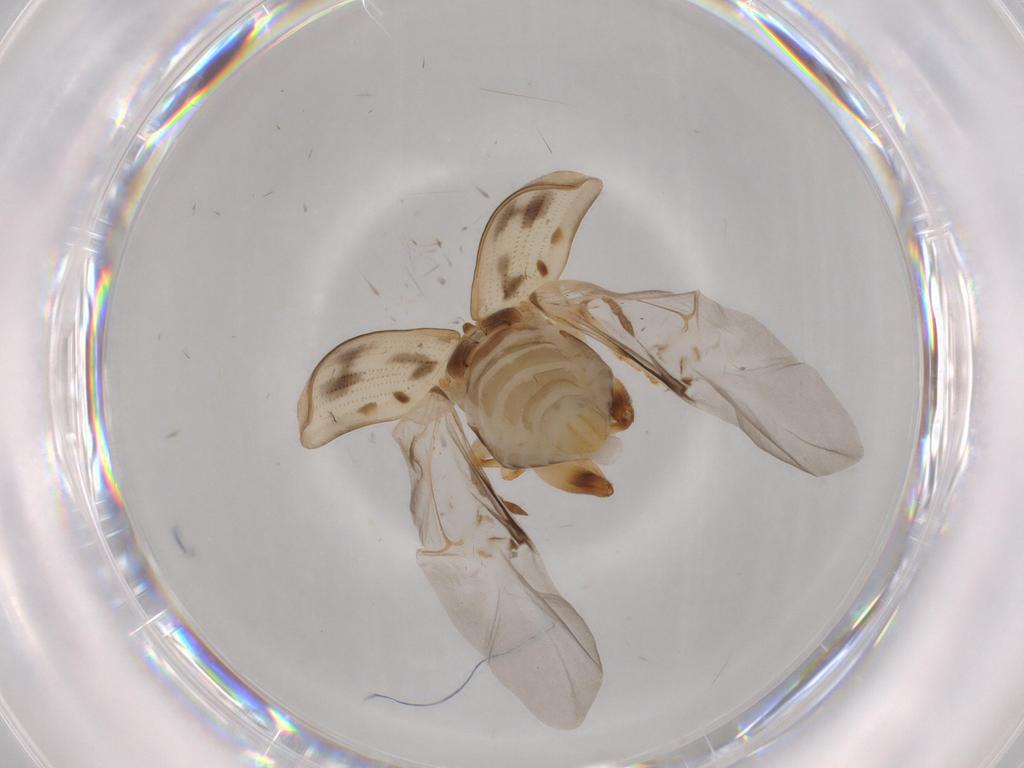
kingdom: Animalia
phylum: Arthropoda
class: Insecta
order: Coleoptera
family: Chrysomelidae
